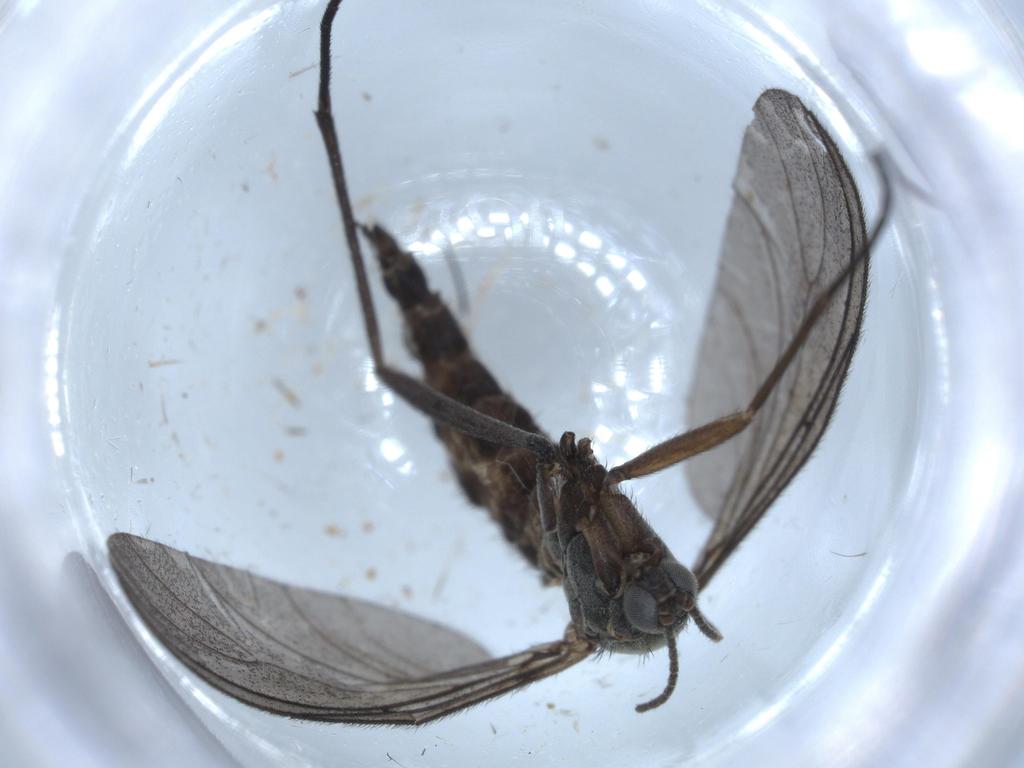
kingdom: Animalia
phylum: Arthropoda
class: Insecta
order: Diptera
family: Sciaridae
